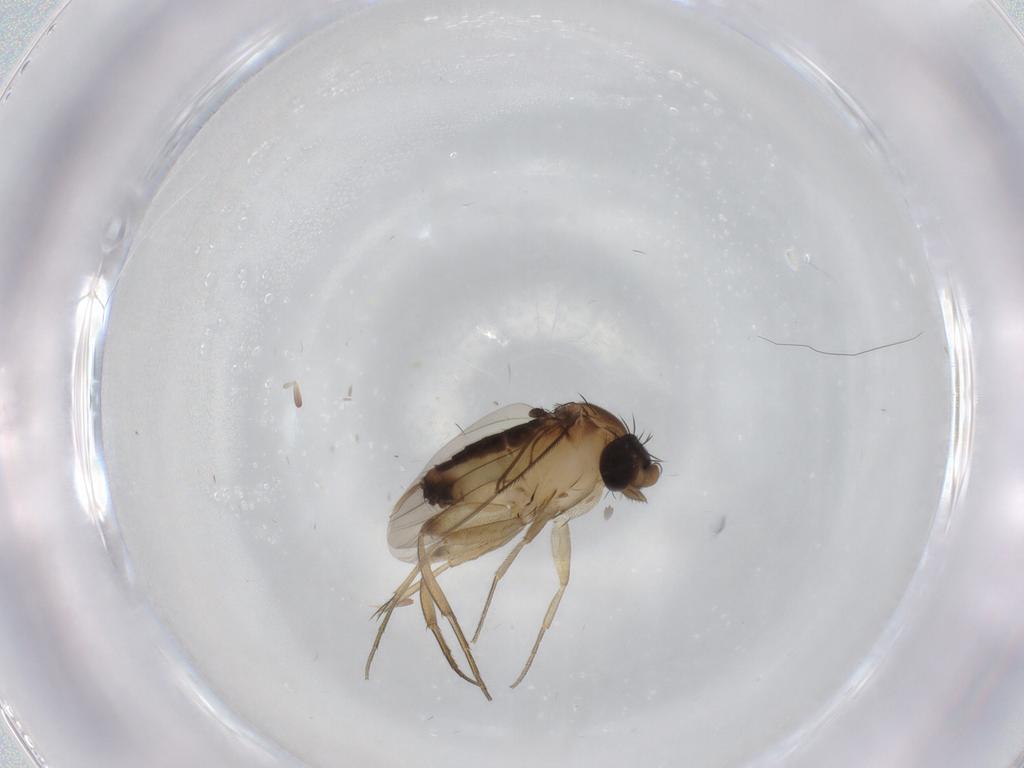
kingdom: Animalia
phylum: Arthropoda
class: Insecta
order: Diptera
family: Phoridae
